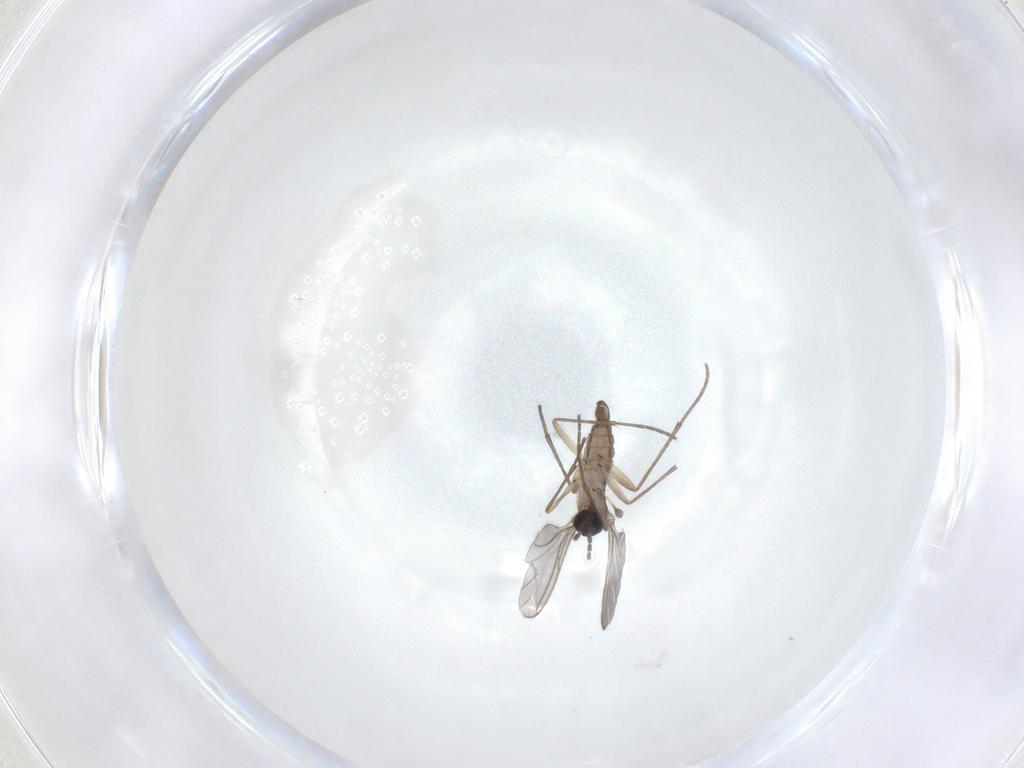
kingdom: Animalia
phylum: Arthropoda
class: Insecta
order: Diptera
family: Sciaridae
